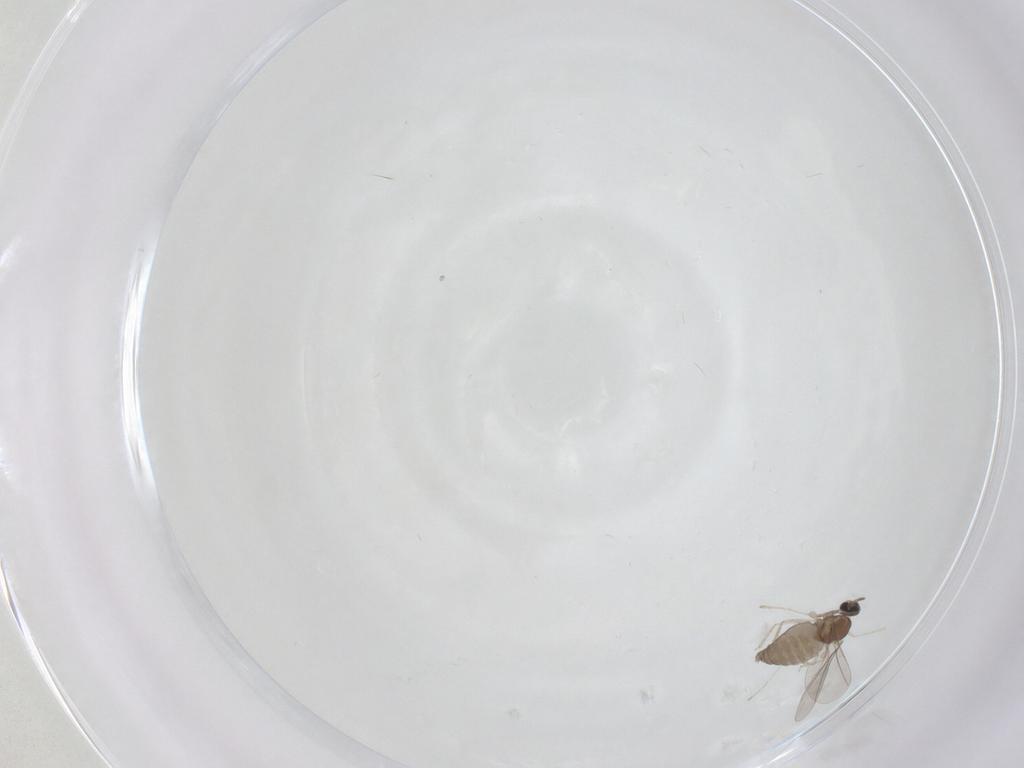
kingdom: Animalia
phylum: Arthropoda
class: Insecta
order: Diptera
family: Cecidomyiidae
